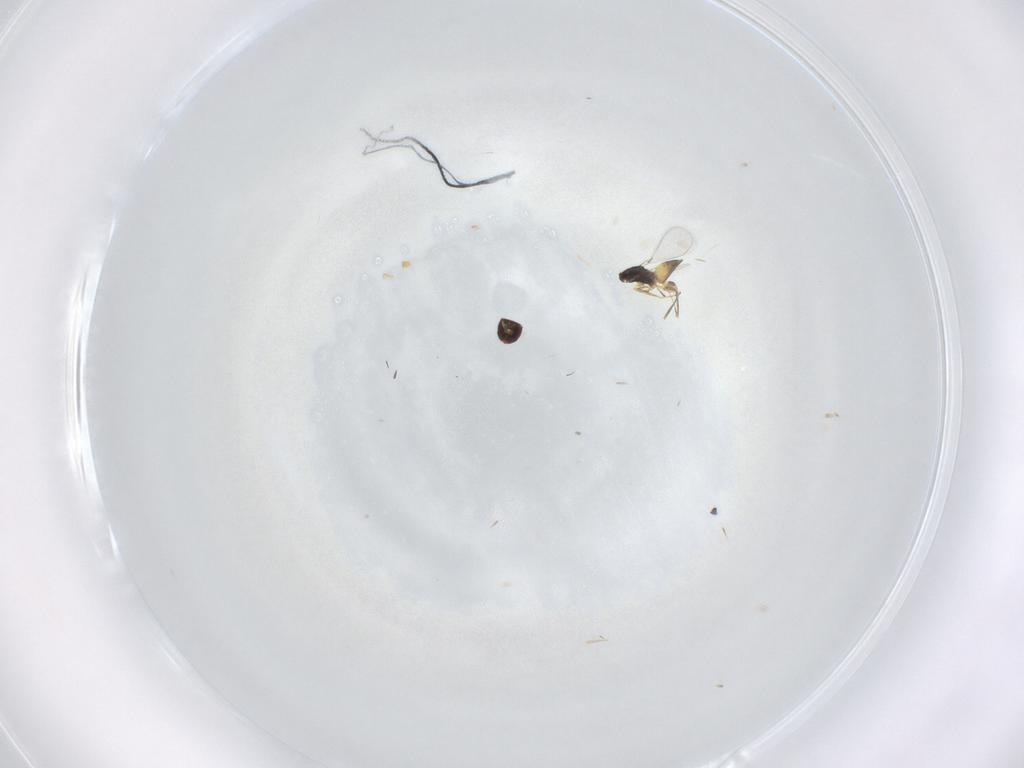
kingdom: Animalia
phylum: Arthropoda
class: Insecta
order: Hymenoptera
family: Mymaridae
